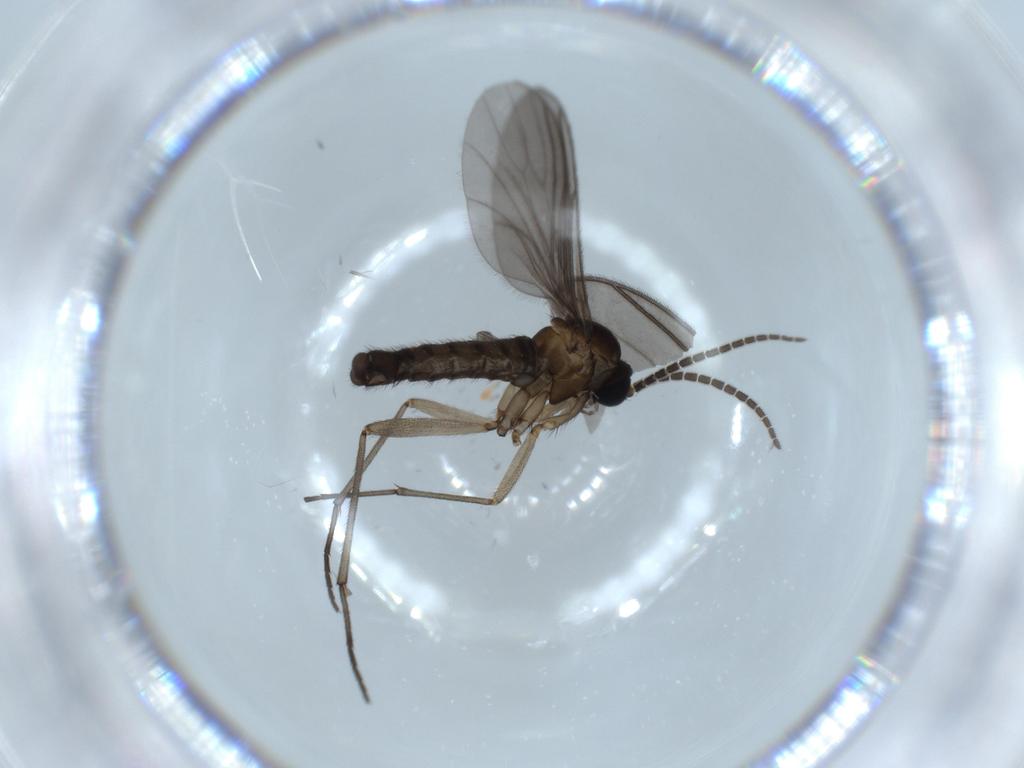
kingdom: Animalia
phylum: Arthropoda
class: Insecta
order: Diptera
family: Sciaridae
